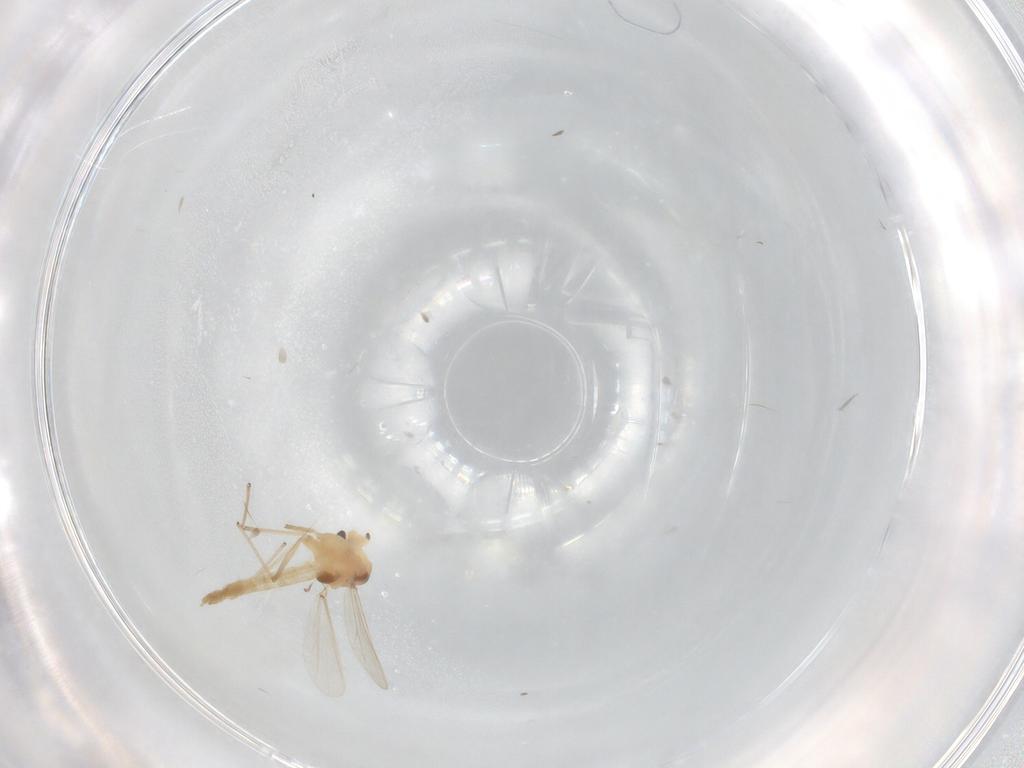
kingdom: Animalia
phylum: Arthropoda
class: Insecta
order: Diptera
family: Chironomidae
